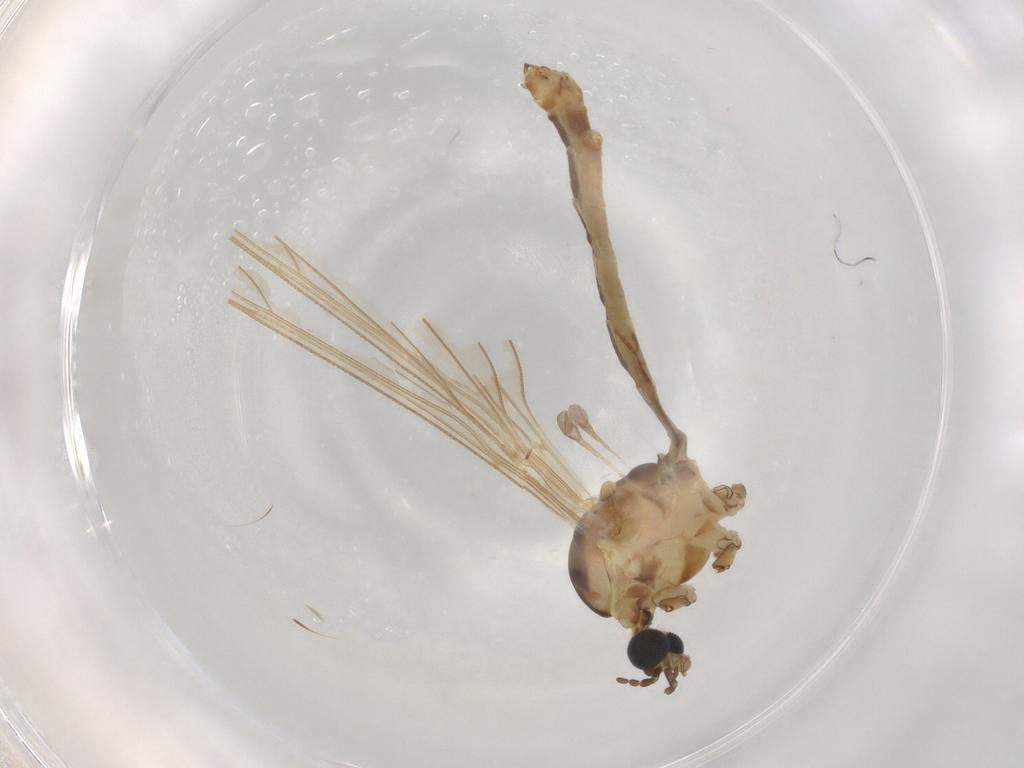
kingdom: Animalia
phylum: Arthropoda
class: Insecta
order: Diptera
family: Limoniidae
